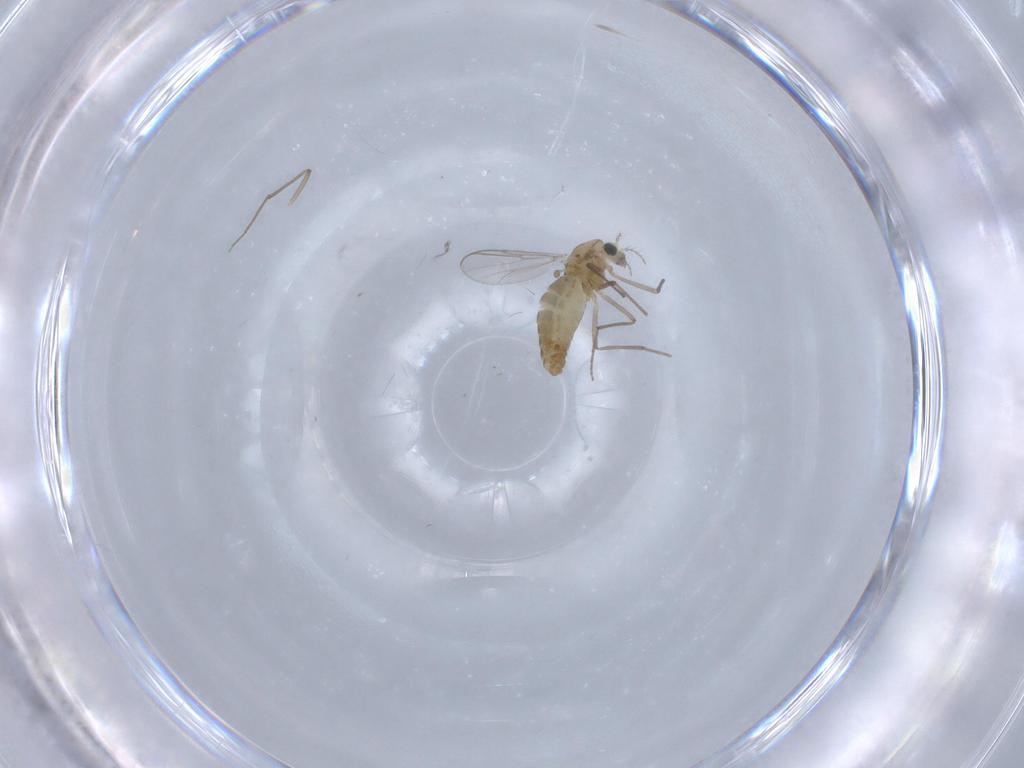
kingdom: Animalia
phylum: Arthropoda
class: Insecta
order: Diptera
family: Chironomidae
